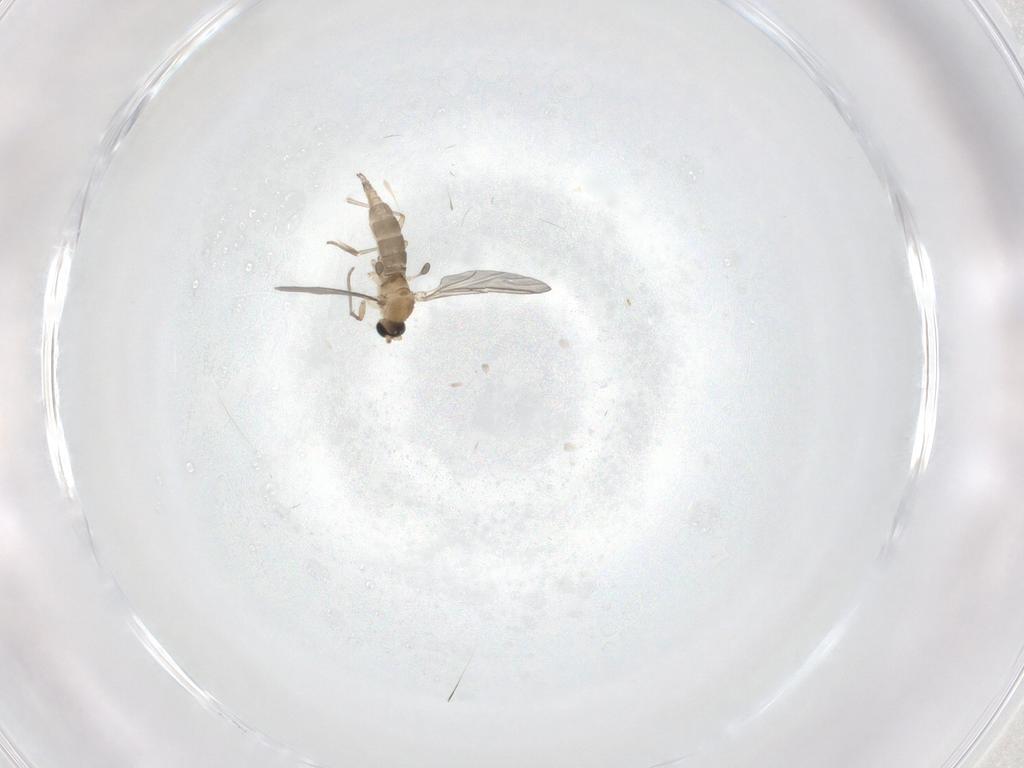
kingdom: Animalia
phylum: Arthropoda
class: Insecta
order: Diptera
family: Sciaridae
